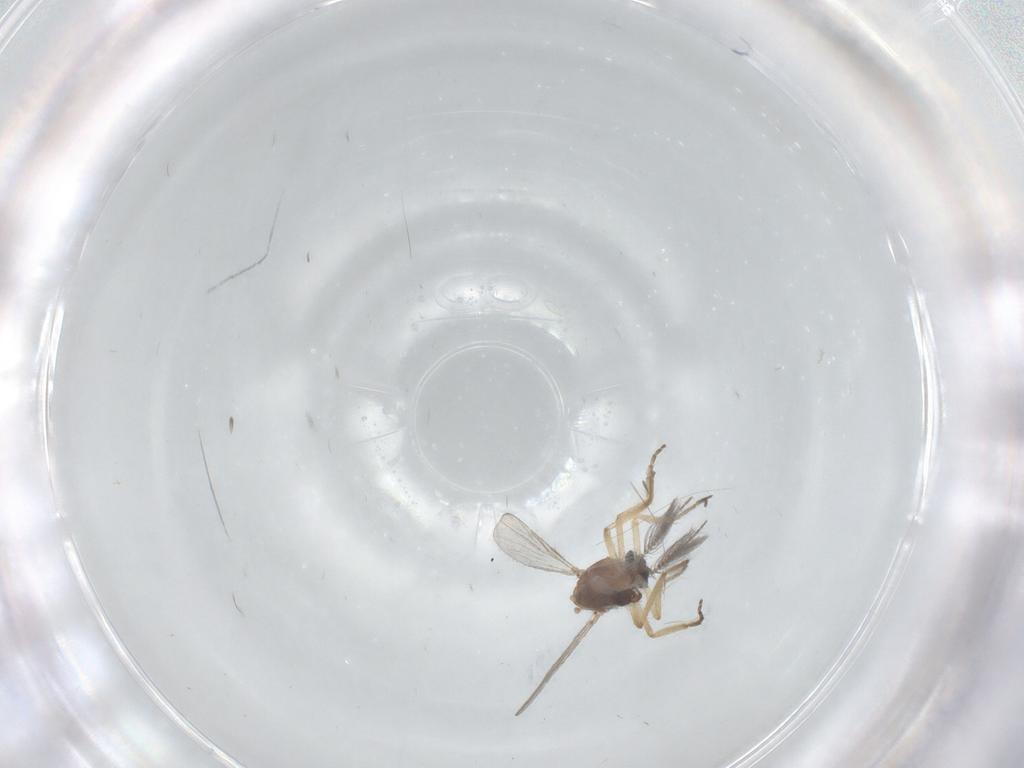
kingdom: Animalia
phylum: Arthropoda
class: Insecta
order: Diptera
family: Ceratopogonidae
